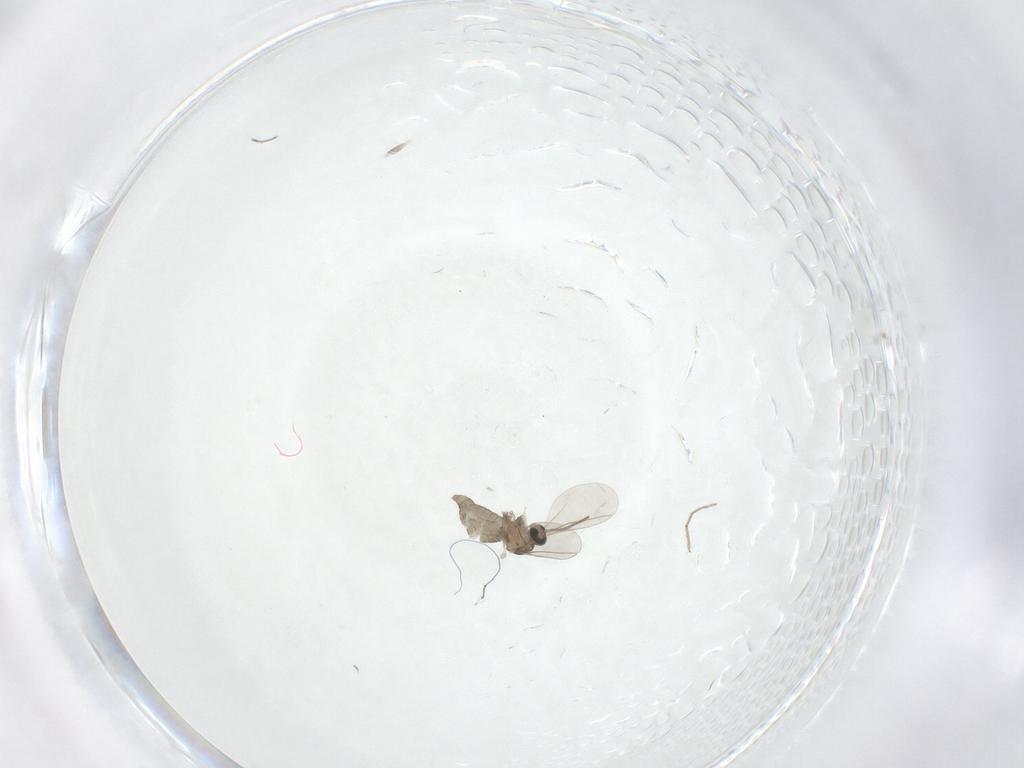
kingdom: Animalia
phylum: Arthropoda
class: Insecta
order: Diptera
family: Cecidomyiidae
